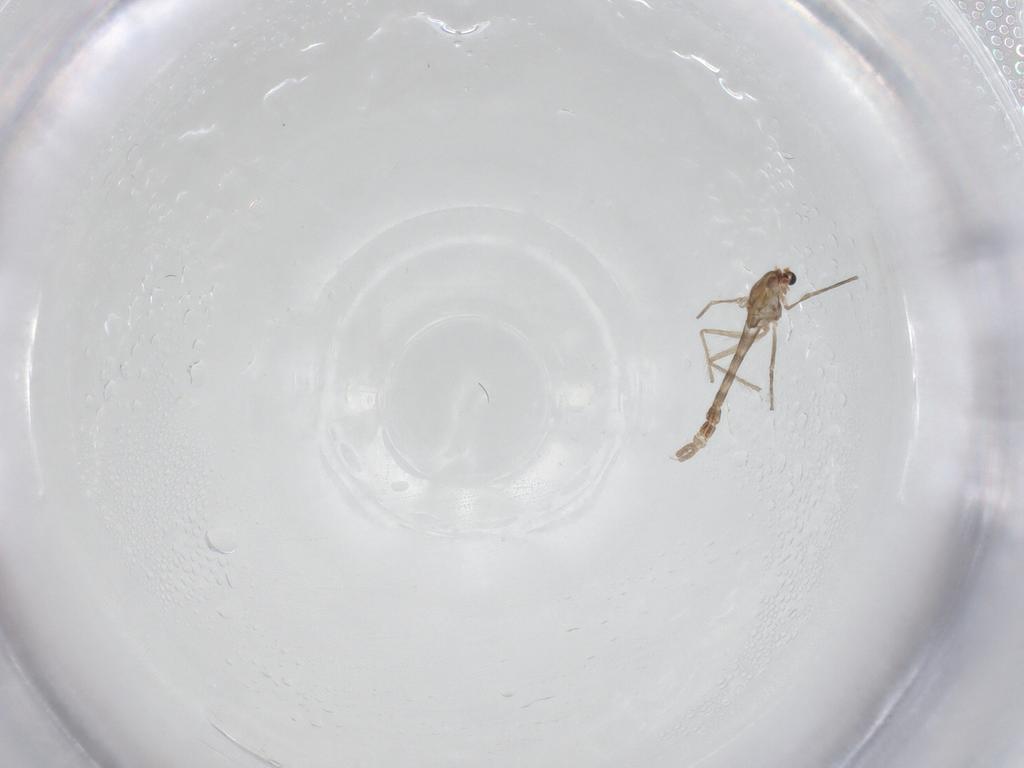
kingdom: Animalia
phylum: Arthropoda
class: Insecta
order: Diptera
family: Chironomidae
